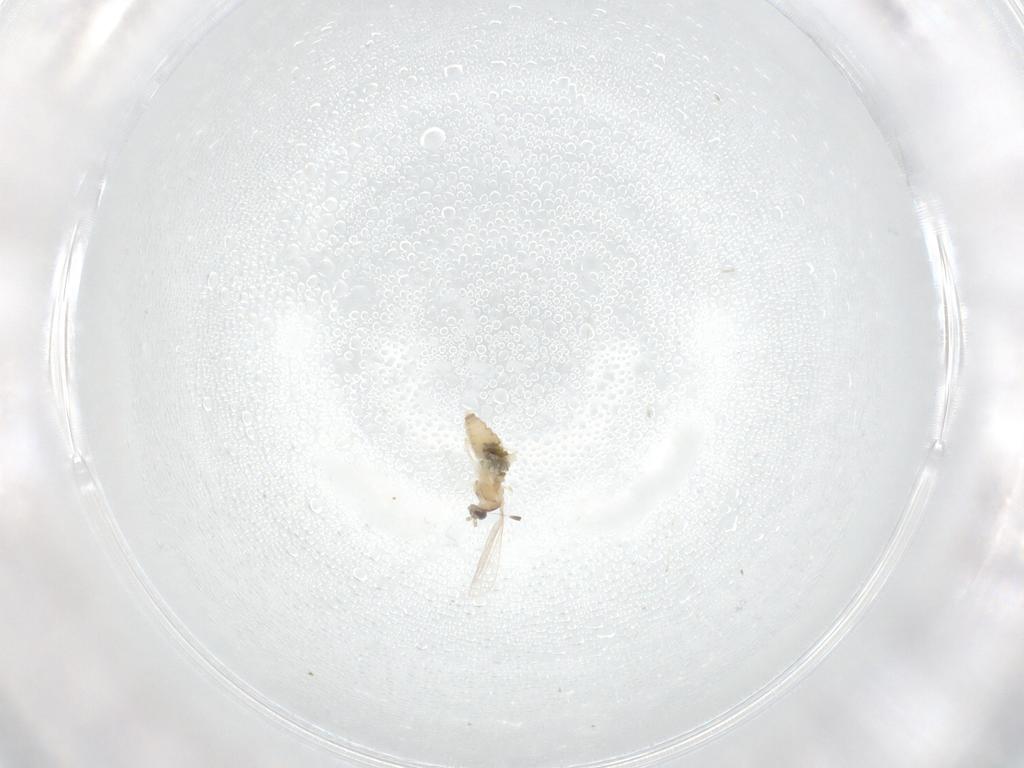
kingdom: Animalia
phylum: Arthropoda
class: Insecta
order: Diptera
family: Cecidomyiidae
